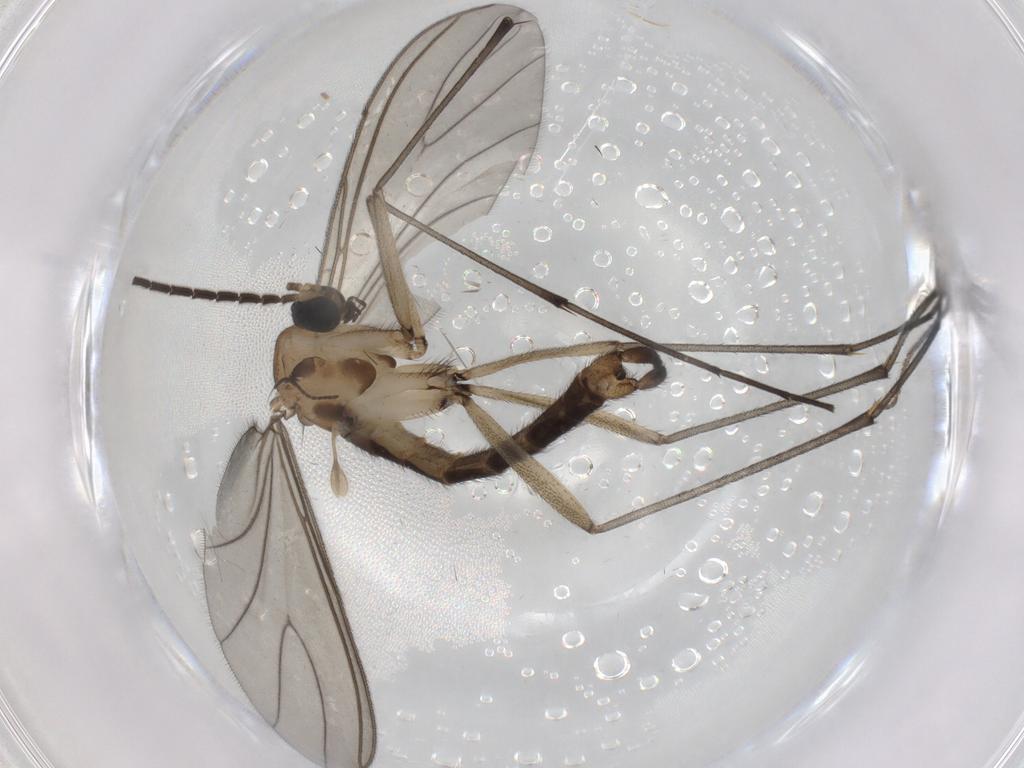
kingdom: Animalia
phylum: Arthropoda
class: Insecta
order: Diptera
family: Sciaridae
